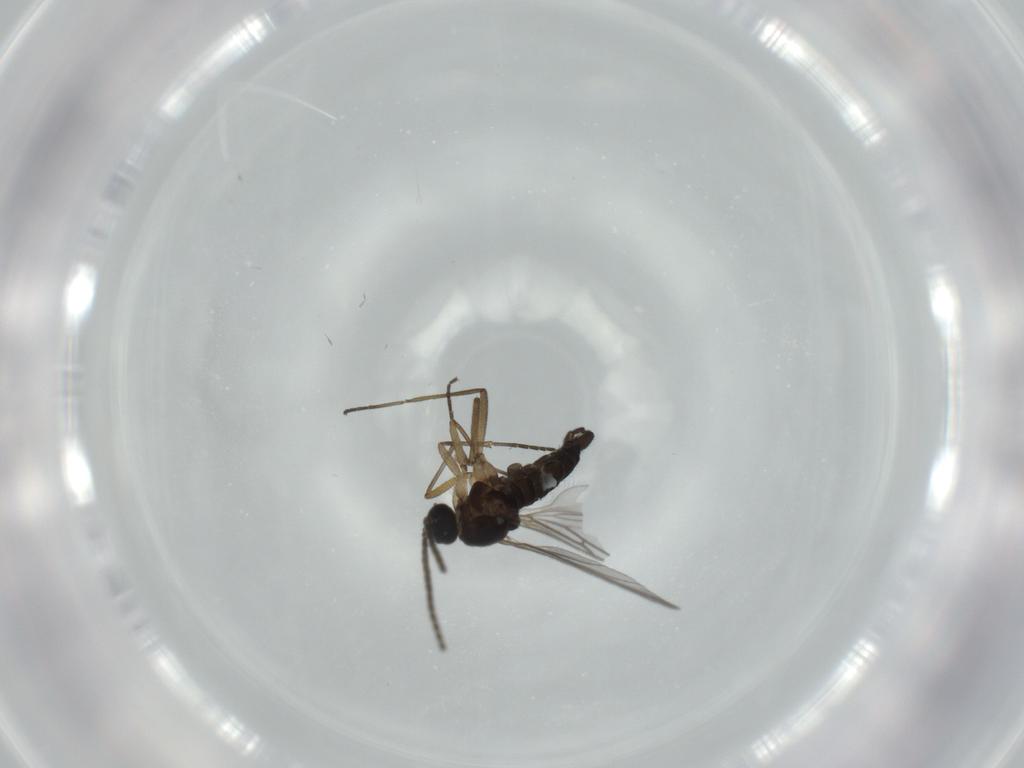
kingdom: Animalia
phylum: Arthropoda
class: Insecta
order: Diptera
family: Sciaridae
